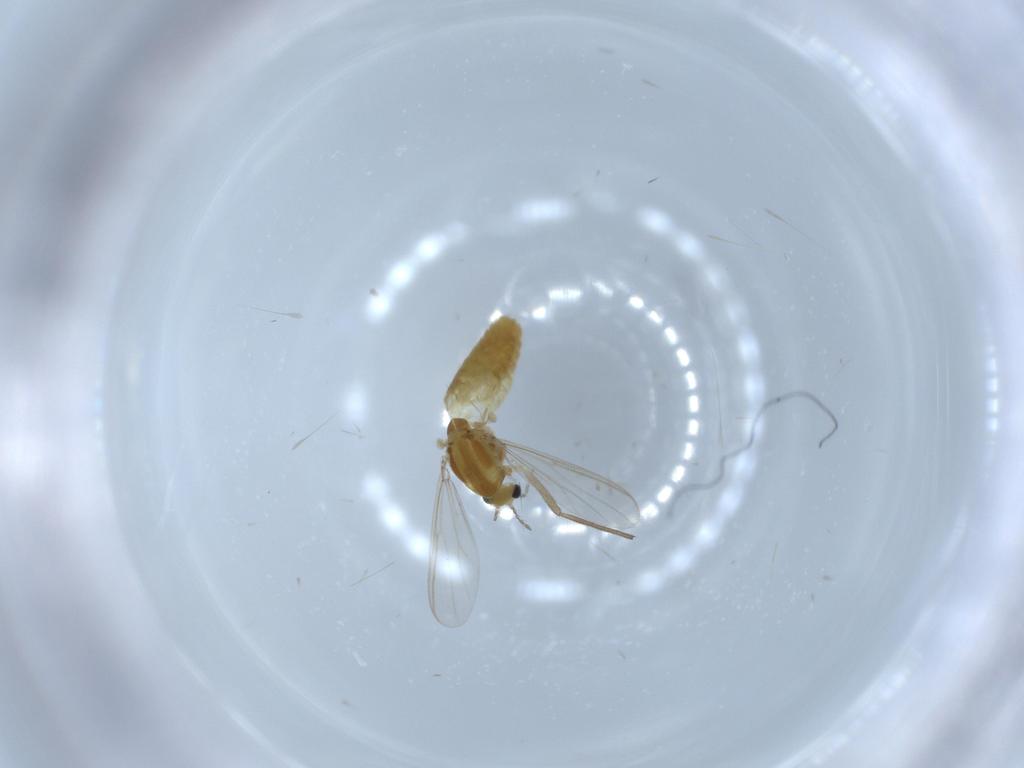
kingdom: Animalia
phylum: Arthropoda
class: Insecta
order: Diptera
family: Chironomidae
